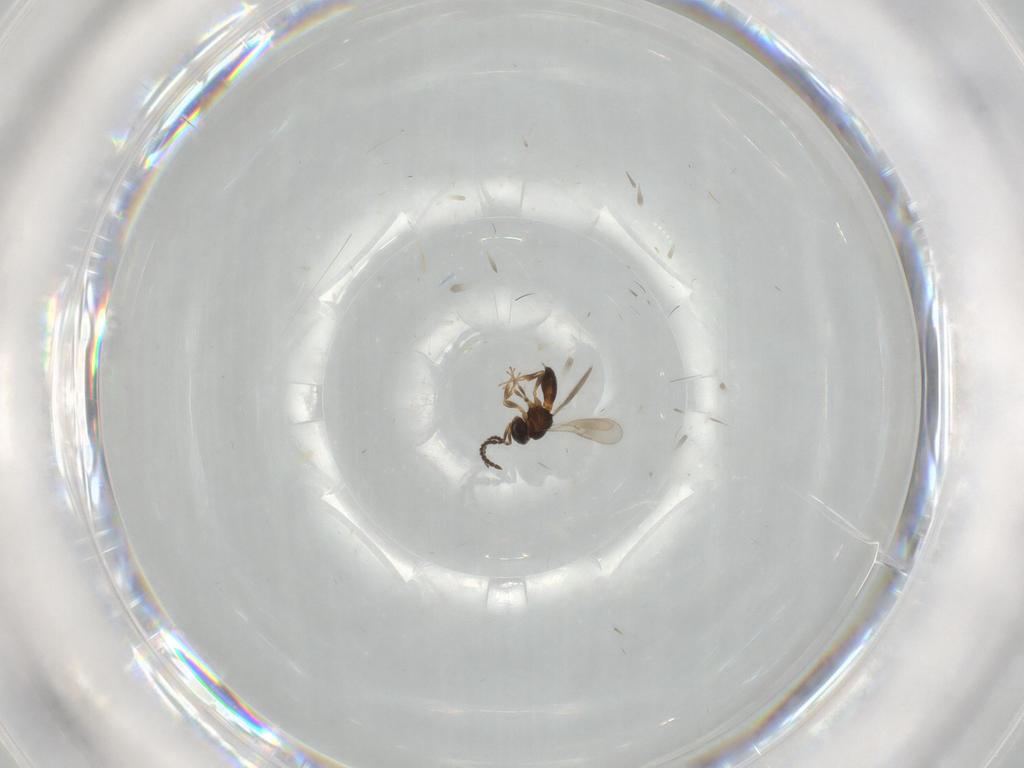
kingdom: Animalia
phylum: Arthropoda
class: Insecta
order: Hymenoptera
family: Scelionidae
